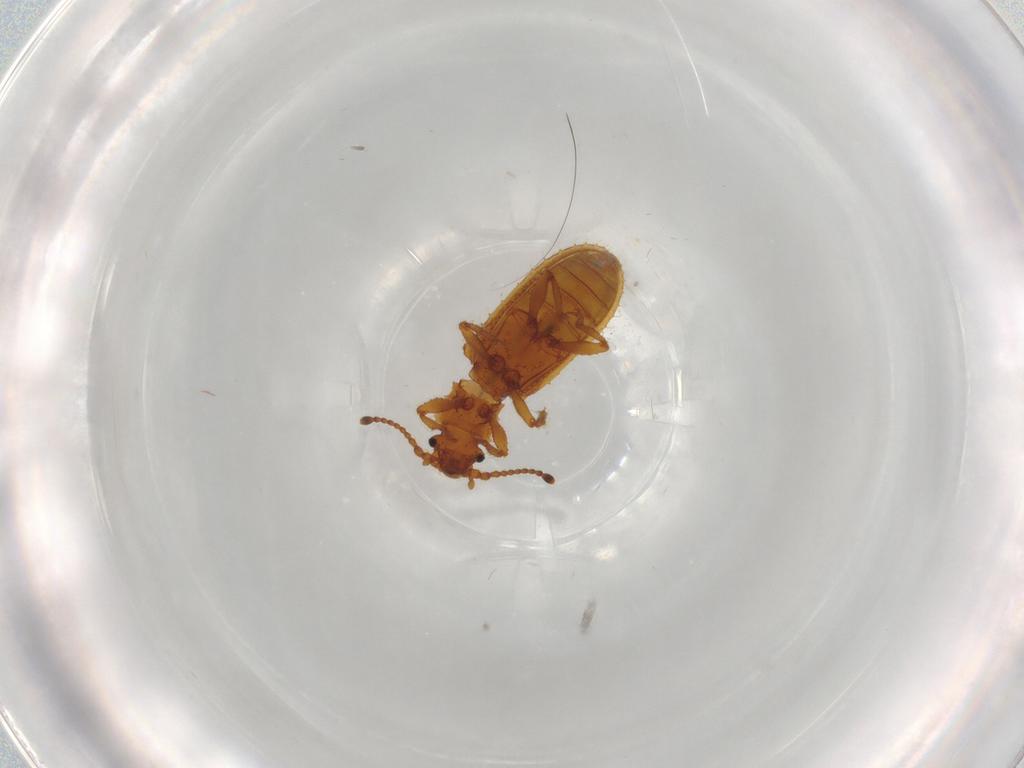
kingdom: Animalia
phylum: Arthropoda
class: Insecta
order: Coleoptera
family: Zopheridae
